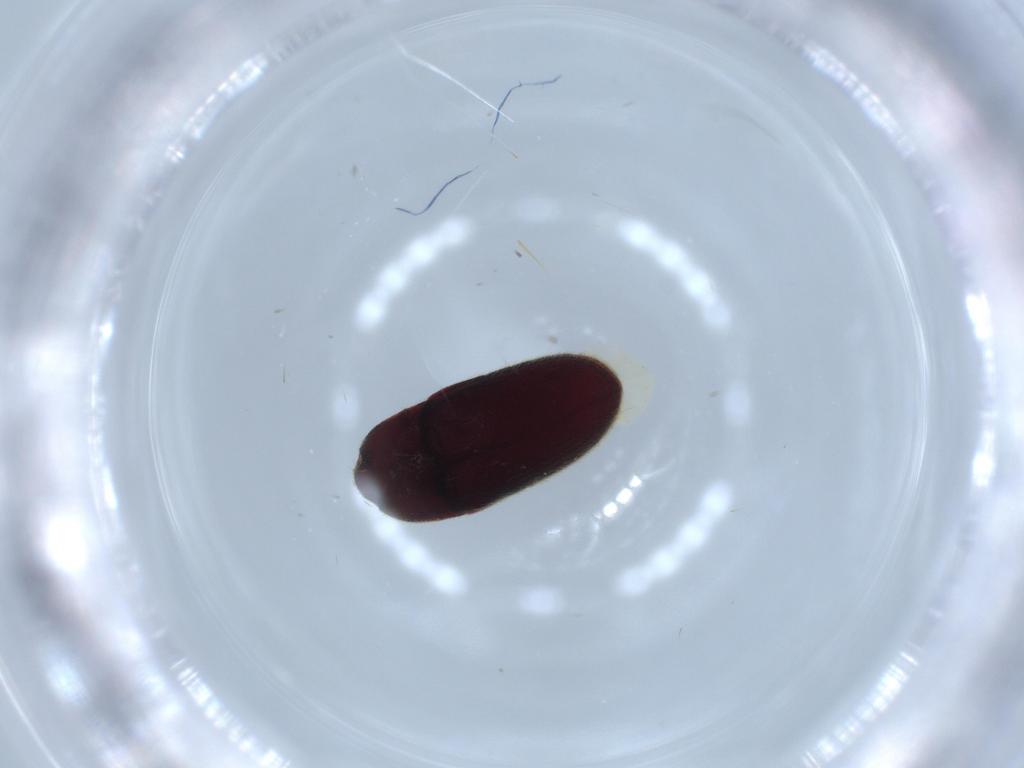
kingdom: Animalia
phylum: Arthropoda
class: Insecta
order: Coleoptera
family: Throscidae
